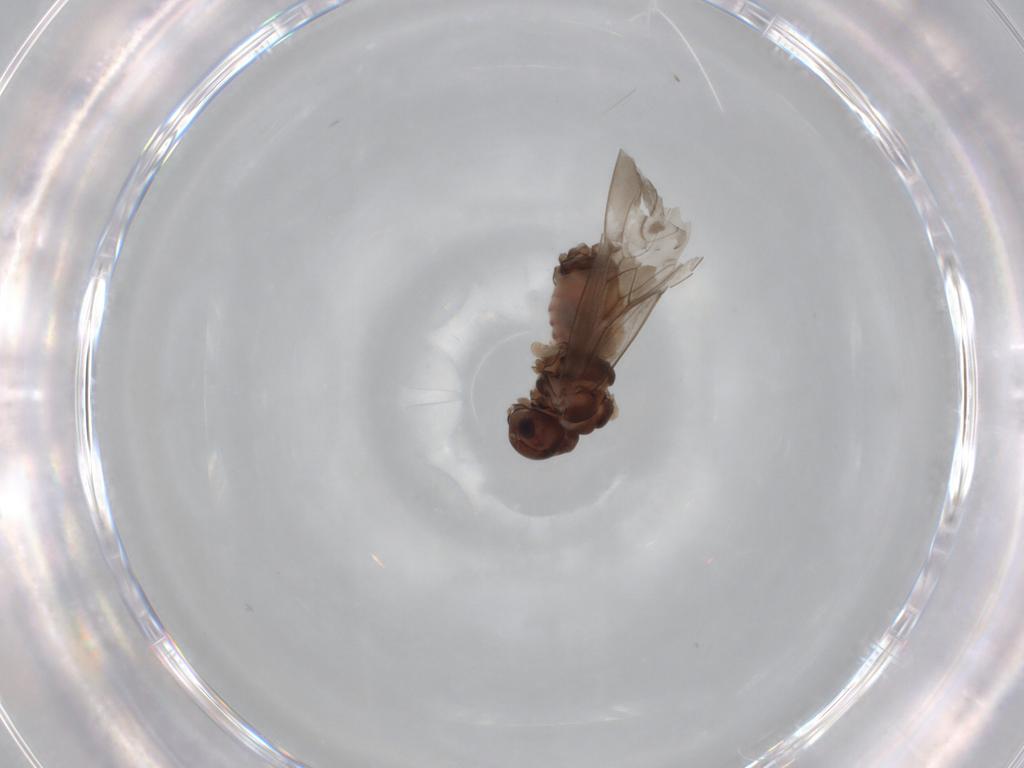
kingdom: Animalia
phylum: Arthropoda
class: Insecta
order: Psocodea
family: Peripsocidae
